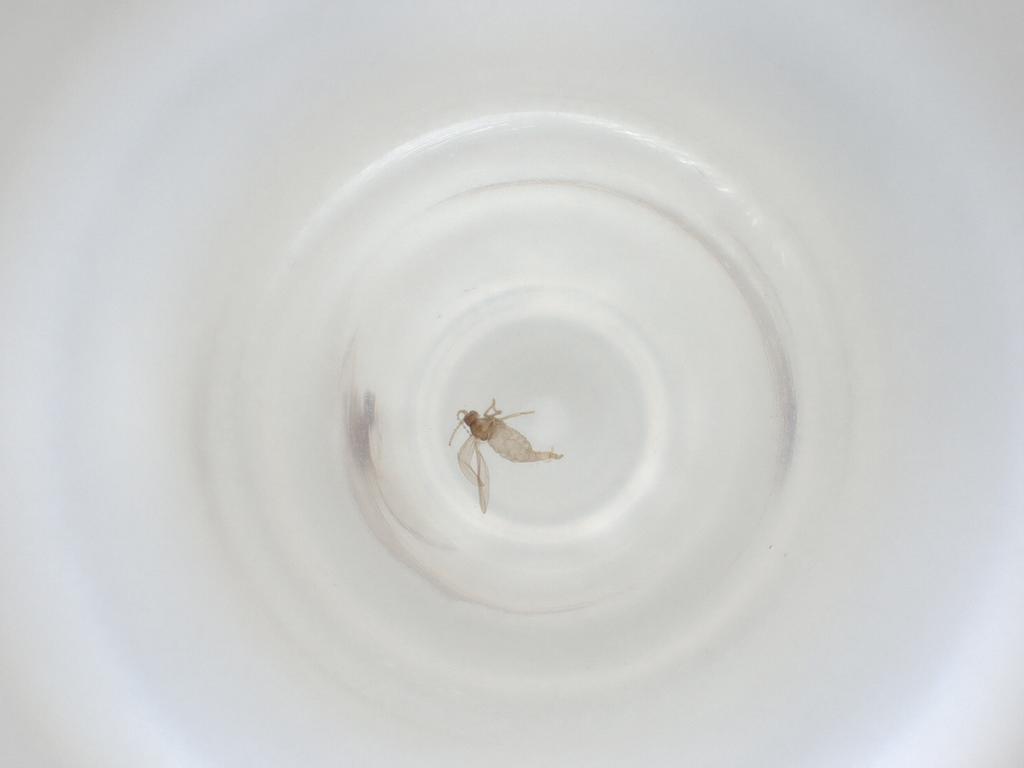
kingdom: Animalia
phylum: Arthropoda
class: Insecta
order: Diptera
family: Cecidomyiidae
